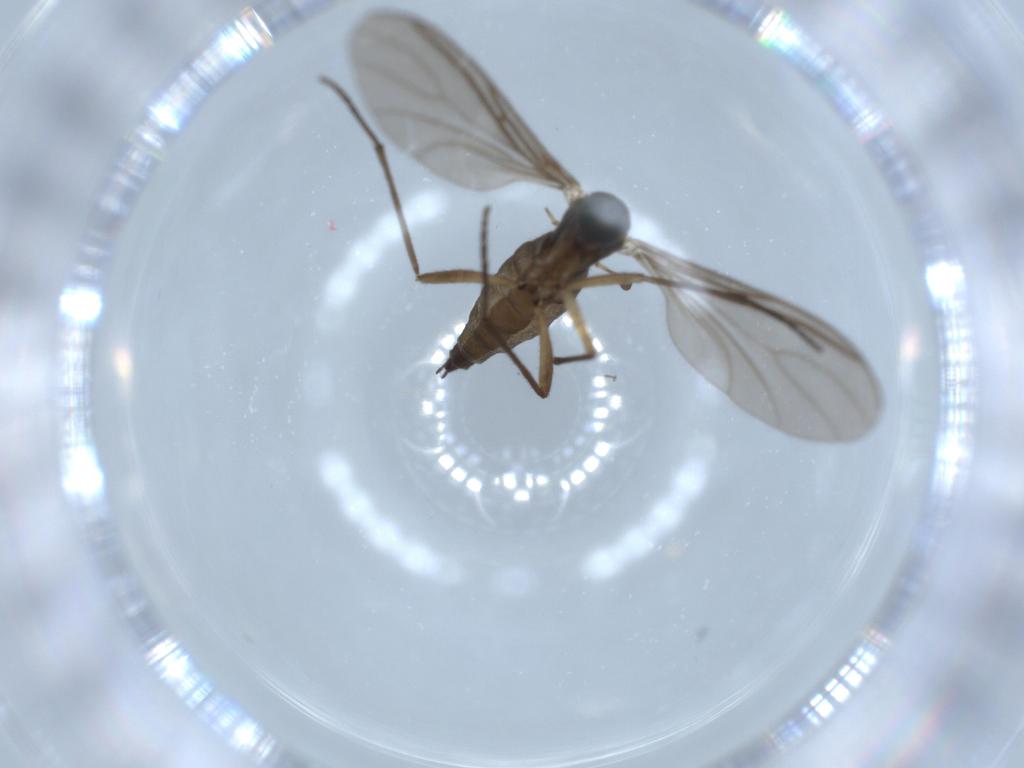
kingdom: Animalia
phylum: Arthropoda
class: Insecta
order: Diptera
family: Sciaridae
